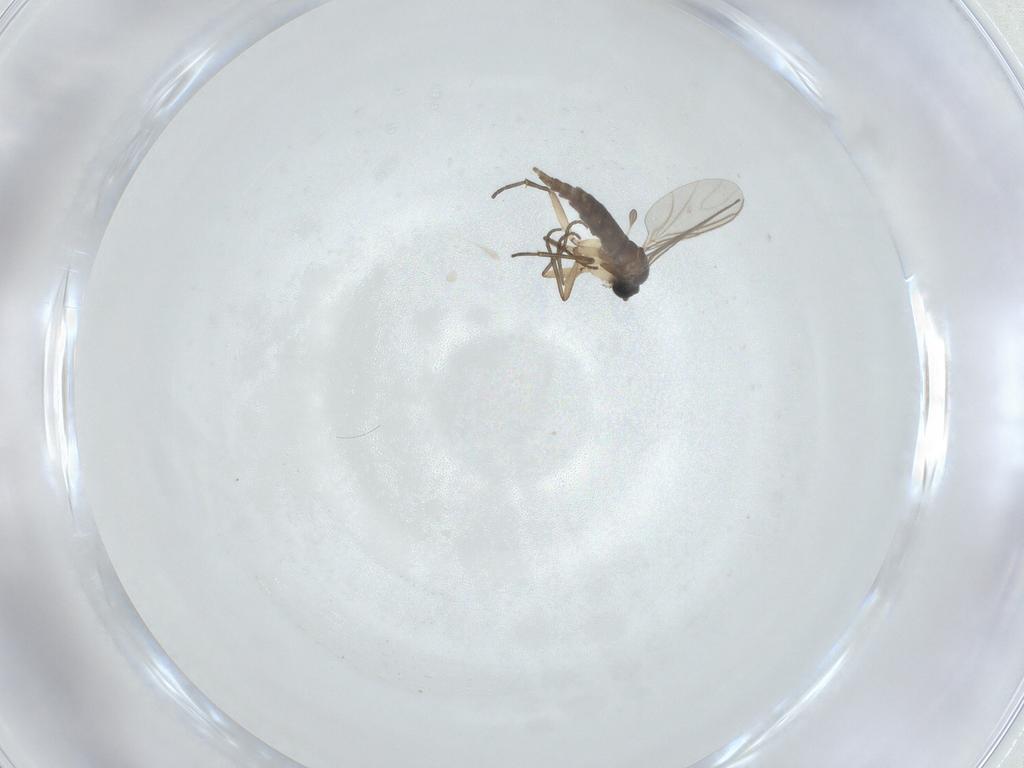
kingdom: Animalia
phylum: Arthropoda
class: Insecta
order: Diptera
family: Sciaridae
